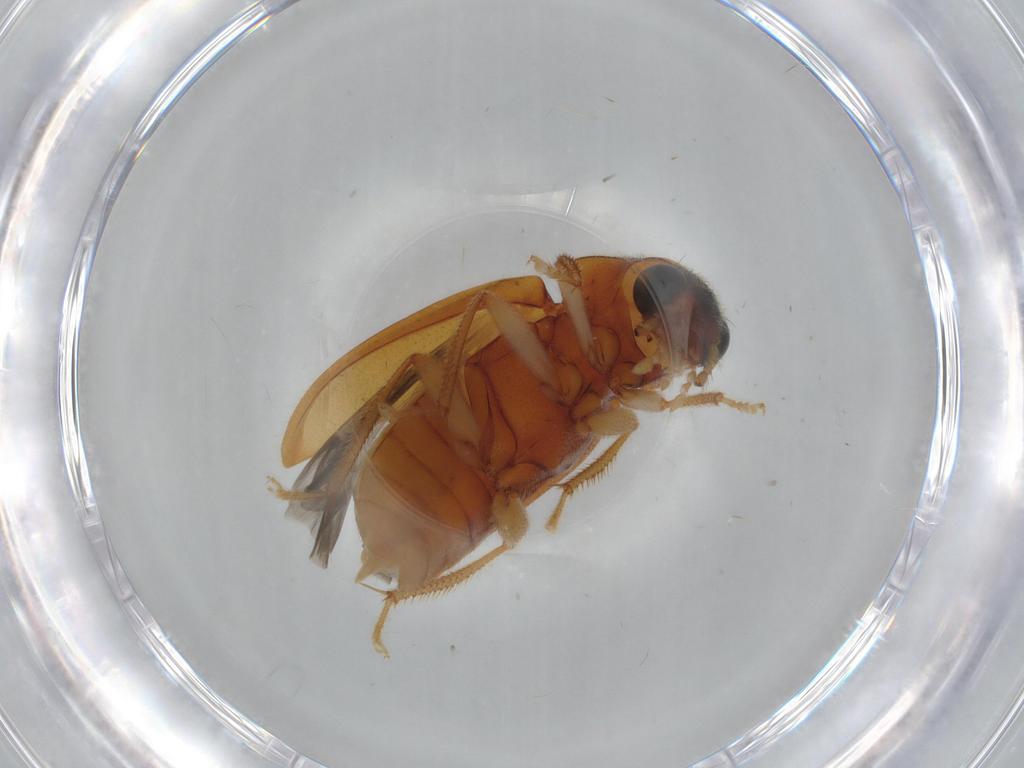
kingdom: Animalia
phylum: Arthropoda
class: Insecta
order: Coleoptera
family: Ptilodactylidae
